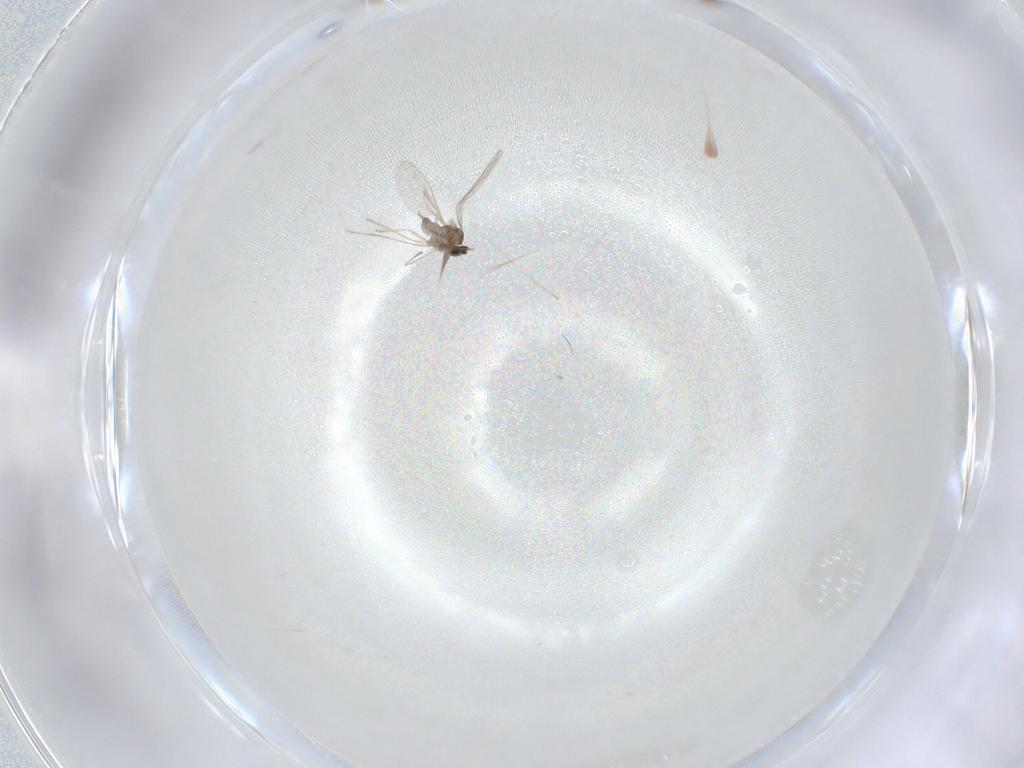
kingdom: Animalia
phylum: Arthropoda
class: Insecta
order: Diptera
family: Cecidomyiidae
